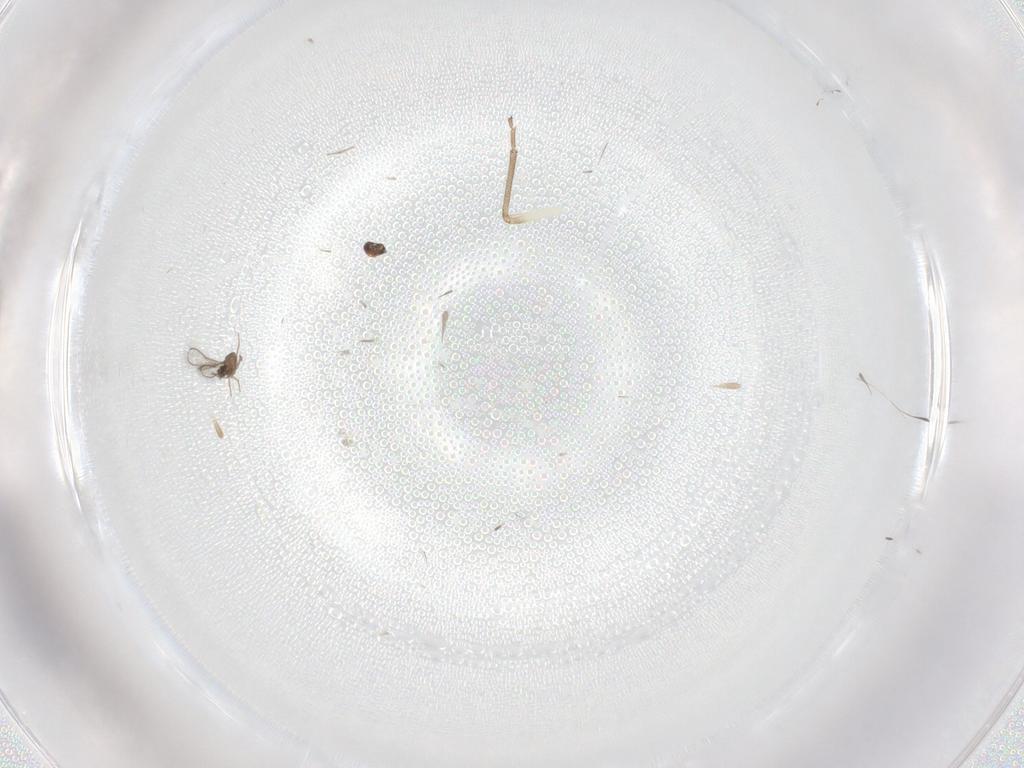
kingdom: Animalia
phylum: Arthropoda
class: Insecta
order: Hymenoptera
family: Mymaridae
